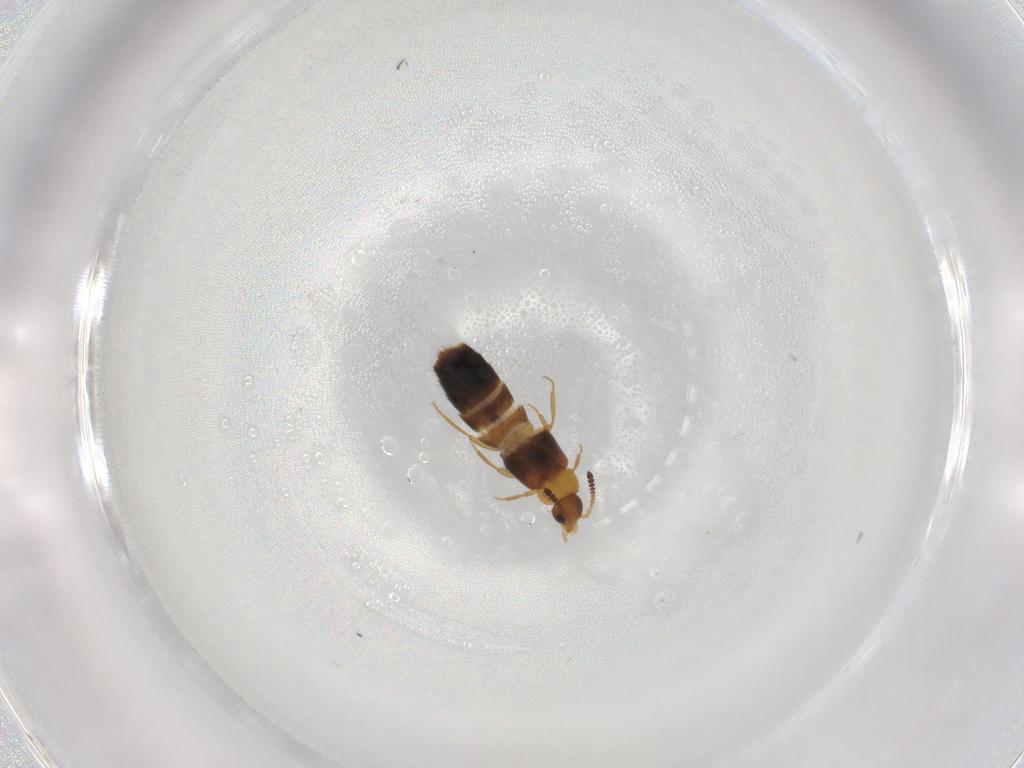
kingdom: Animalia
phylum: Arthropoda
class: Insecta
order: Coleoptera
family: Staphylinidae
